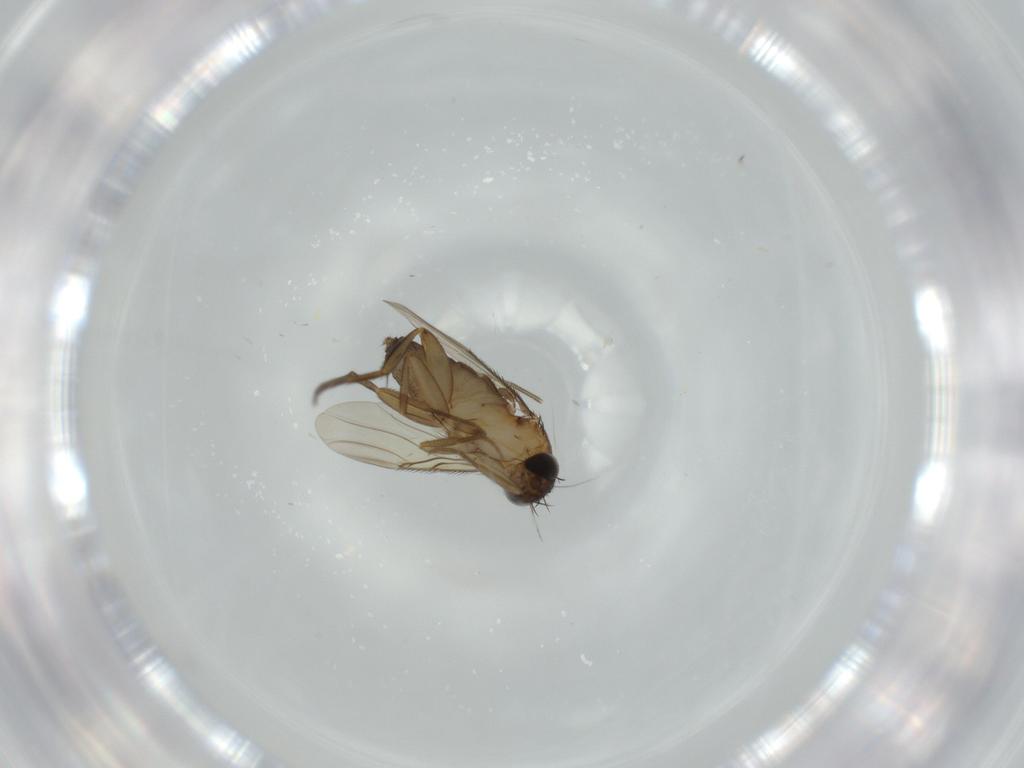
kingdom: Animalia
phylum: Arthropoda
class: Insecta
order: Diptera
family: Phoridae
